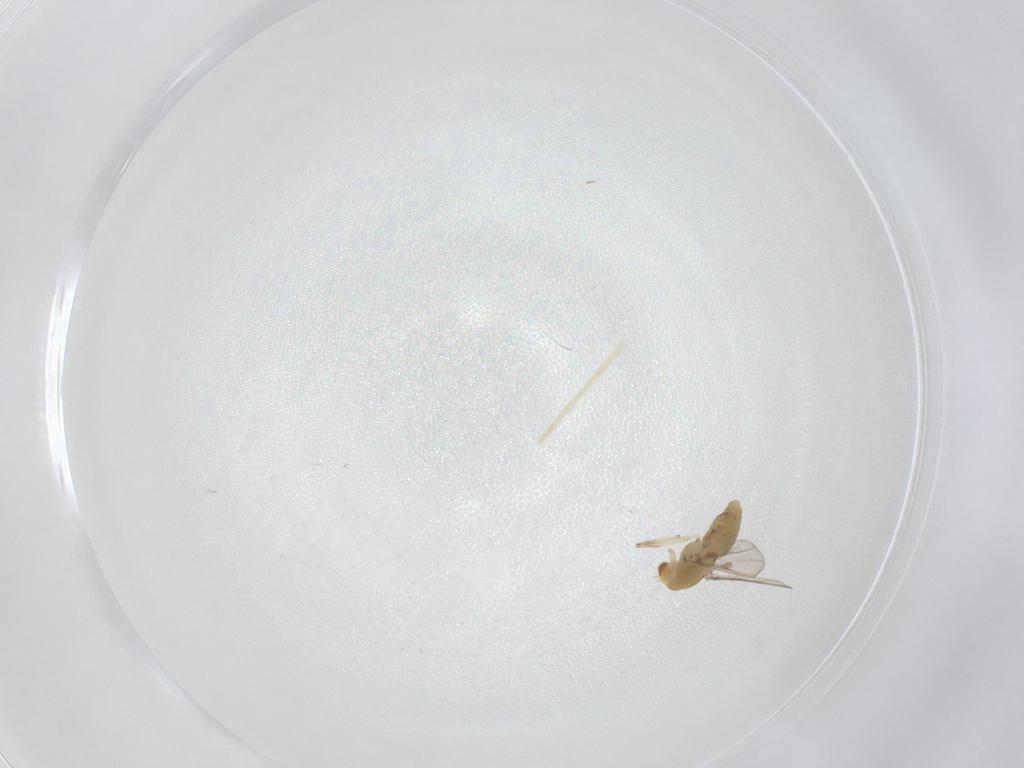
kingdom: Animalia
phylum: Arthropoda
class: Insecta
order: Diptera
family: Chironomidae
